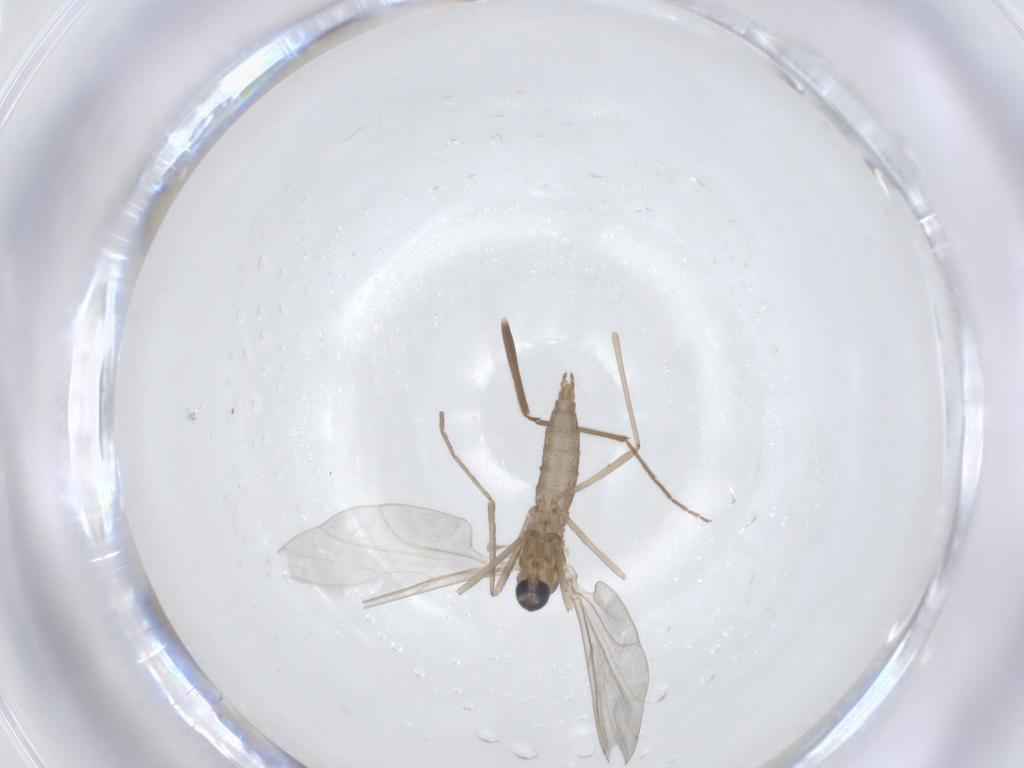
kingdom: Animalia
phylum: Arthropoda
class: Insecta
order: Diptera
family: Cecidomyiidae
